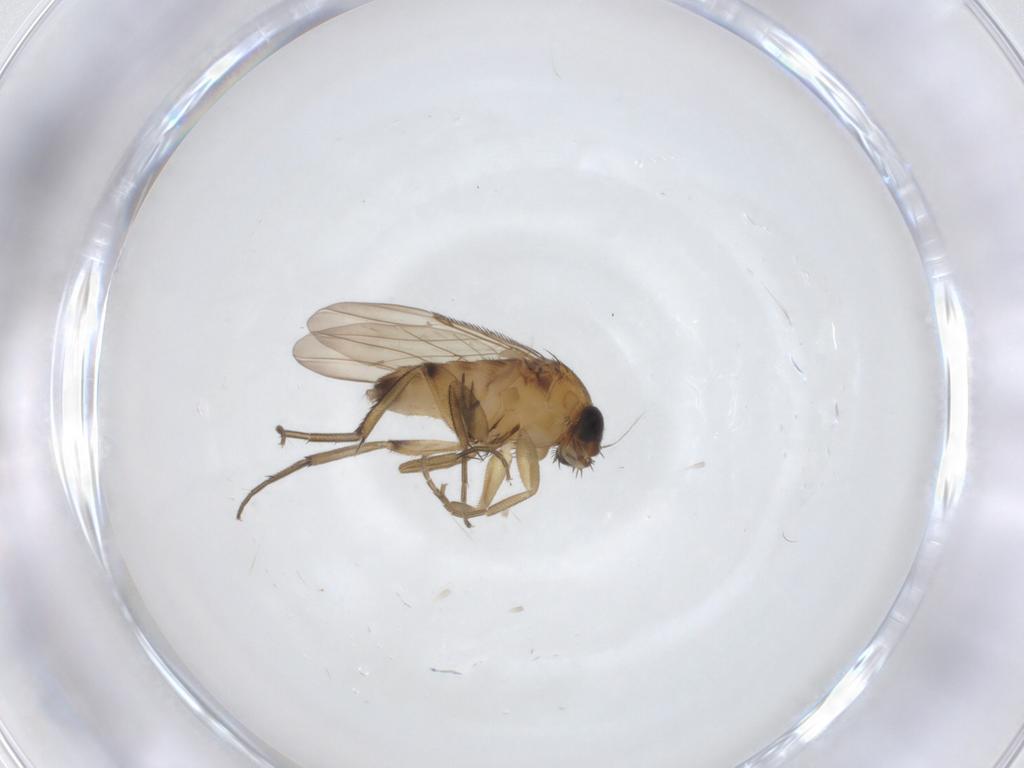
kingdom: Animalia
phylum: Arthropoda
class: Insecta
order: Diptera
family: Phoridae
